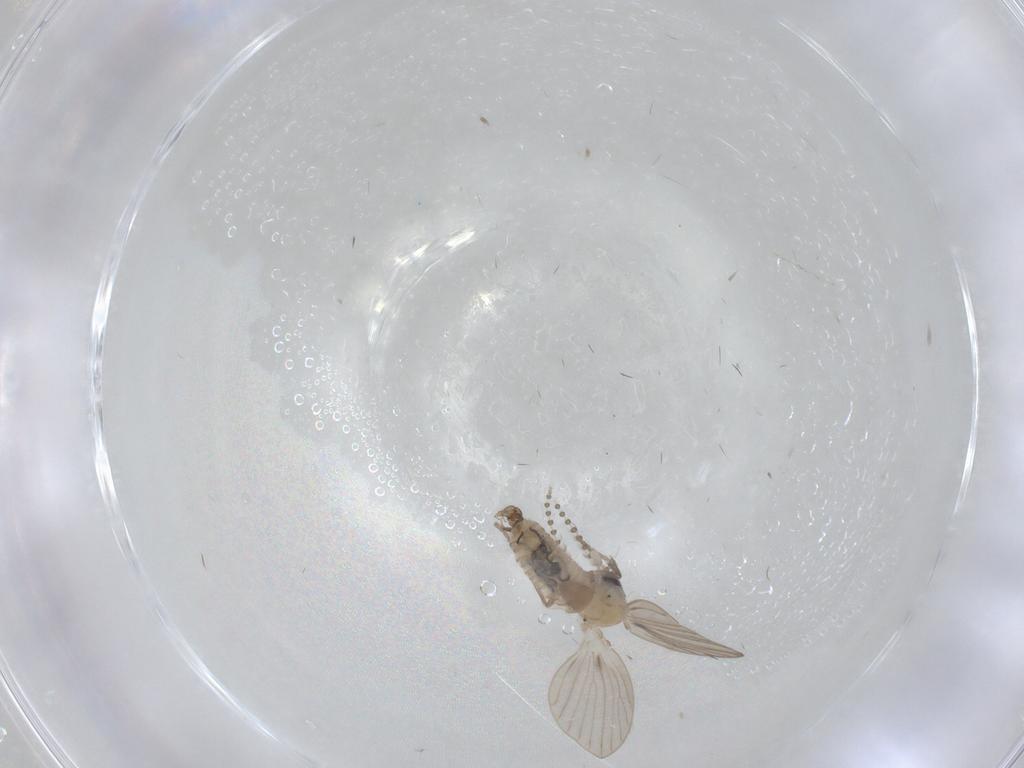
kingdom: Animalia
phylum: Arthropoda
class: Insecta
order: Diptera
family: Psychodidae
